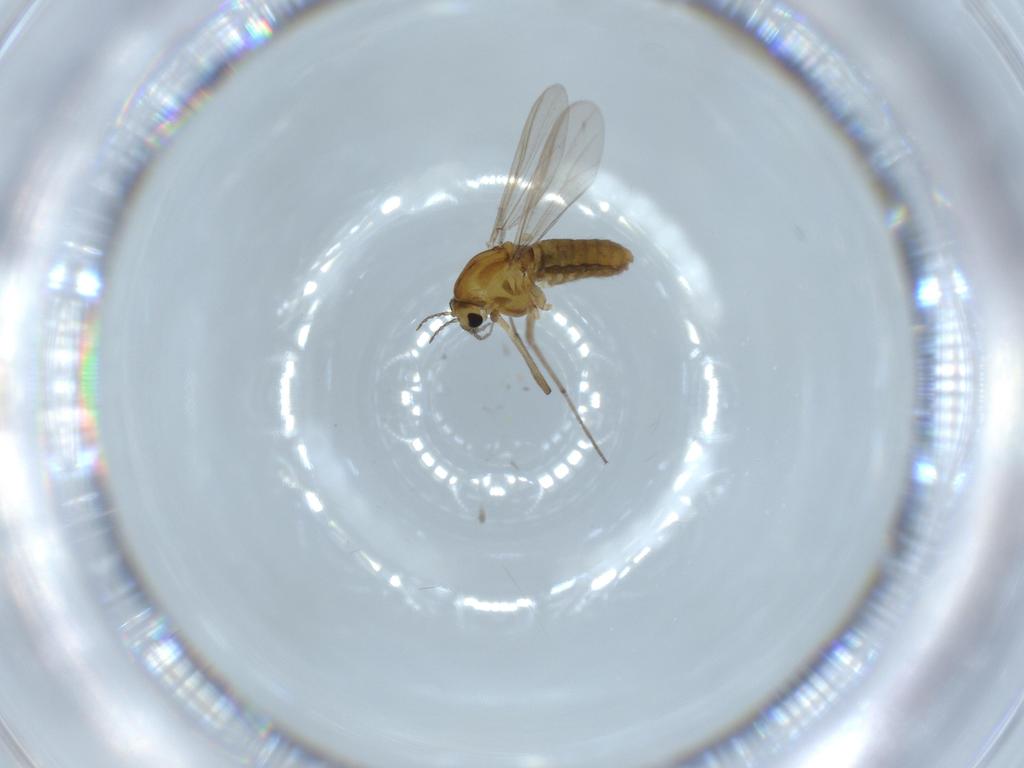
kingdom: Animalia
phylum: Arthropoda
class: Insecta
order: Diptera
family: Chironomidae
